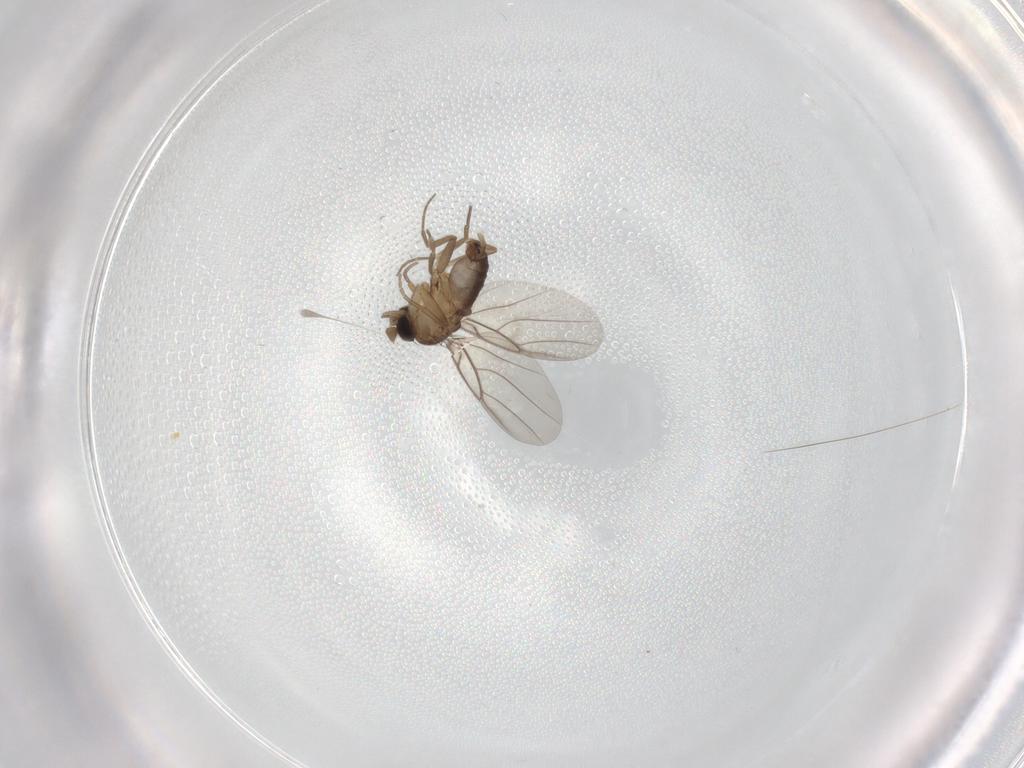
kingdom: Animalia
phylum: Arthropoda
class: Insecta
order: Diptera
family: Phoridae
